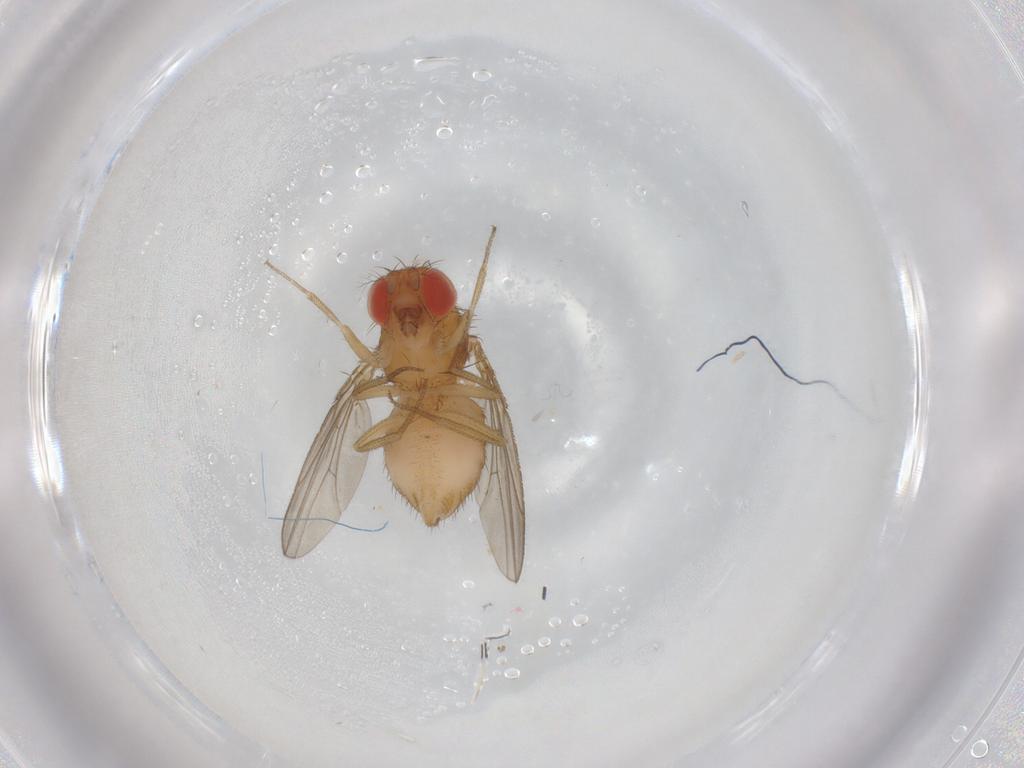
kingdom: Animalia
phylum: Arthropoda
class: Insecta
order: Diptera
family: Drosophilidae
